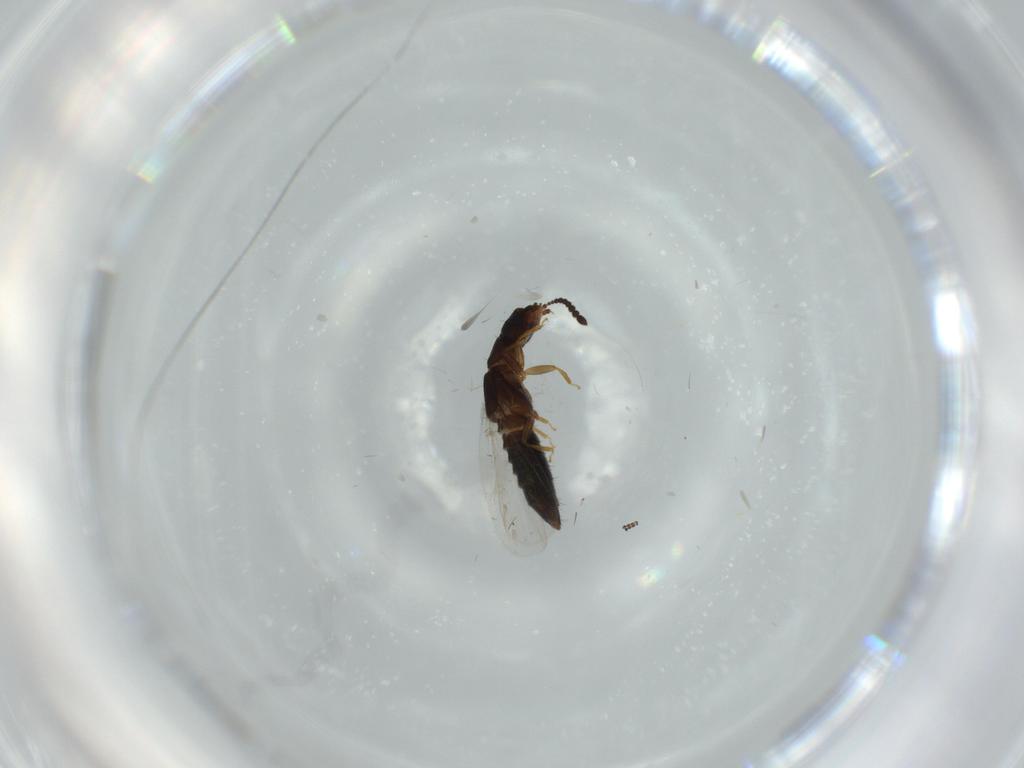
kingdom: Animalia
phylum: Arthropoda
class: Insecta
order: Coleoptera
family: Staphylinidae
